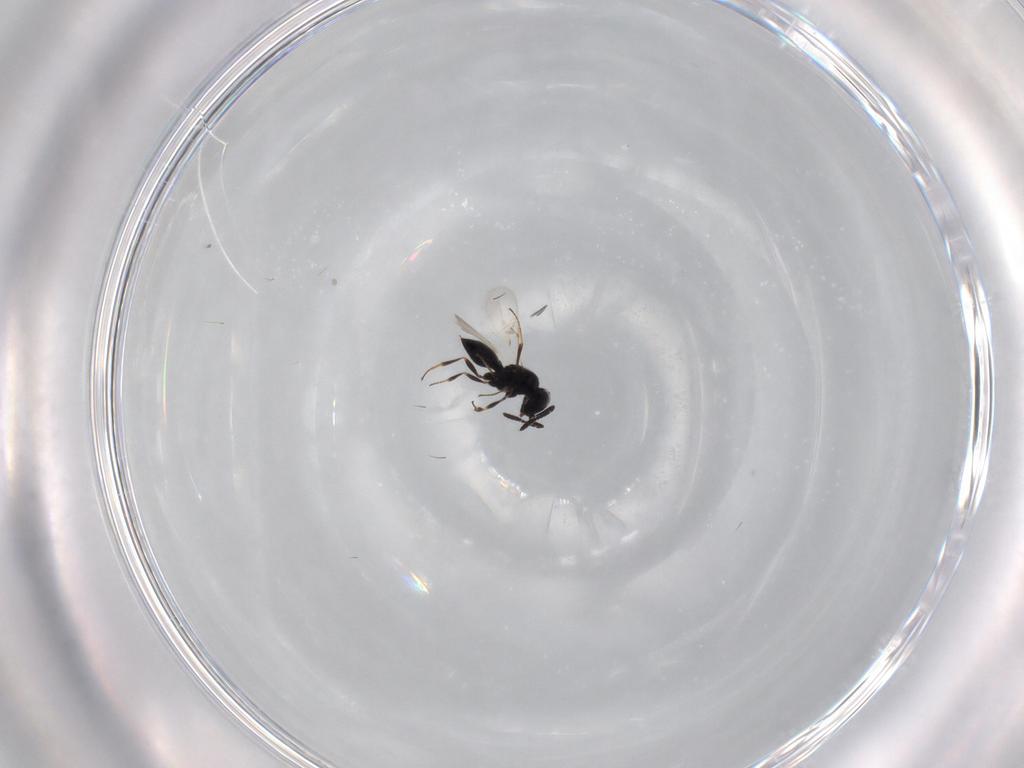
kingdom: Animalia
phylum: Arthropoda
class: Insecta
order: Hymenoptera
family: Scelionidae
